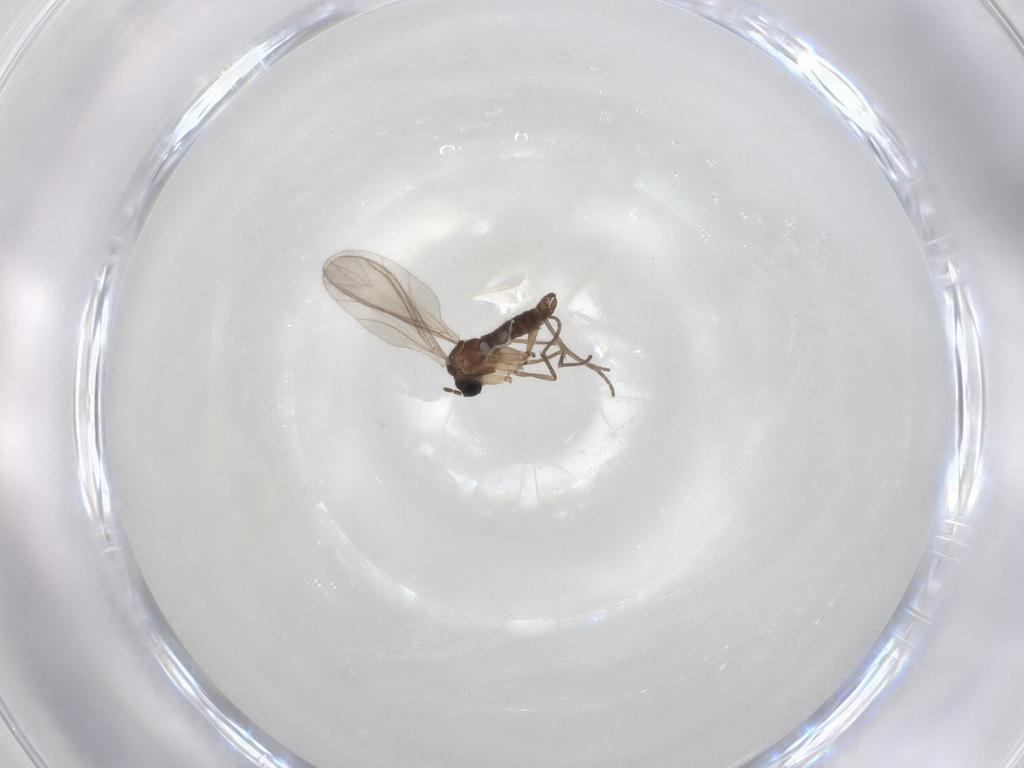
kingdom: Animalia
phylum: Arthropoda
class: Insecta
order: Diptera
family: Sciaridae
